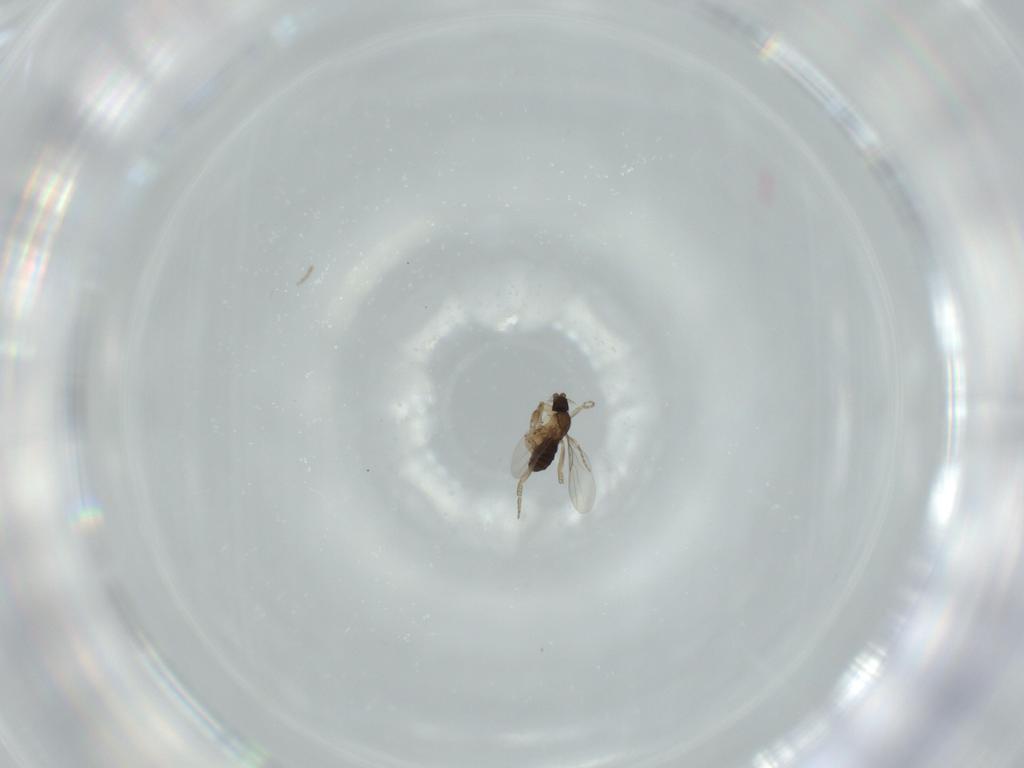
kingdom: Animalia
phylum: Arthropoda
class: Insecta
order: Diptera
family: Phoridae
